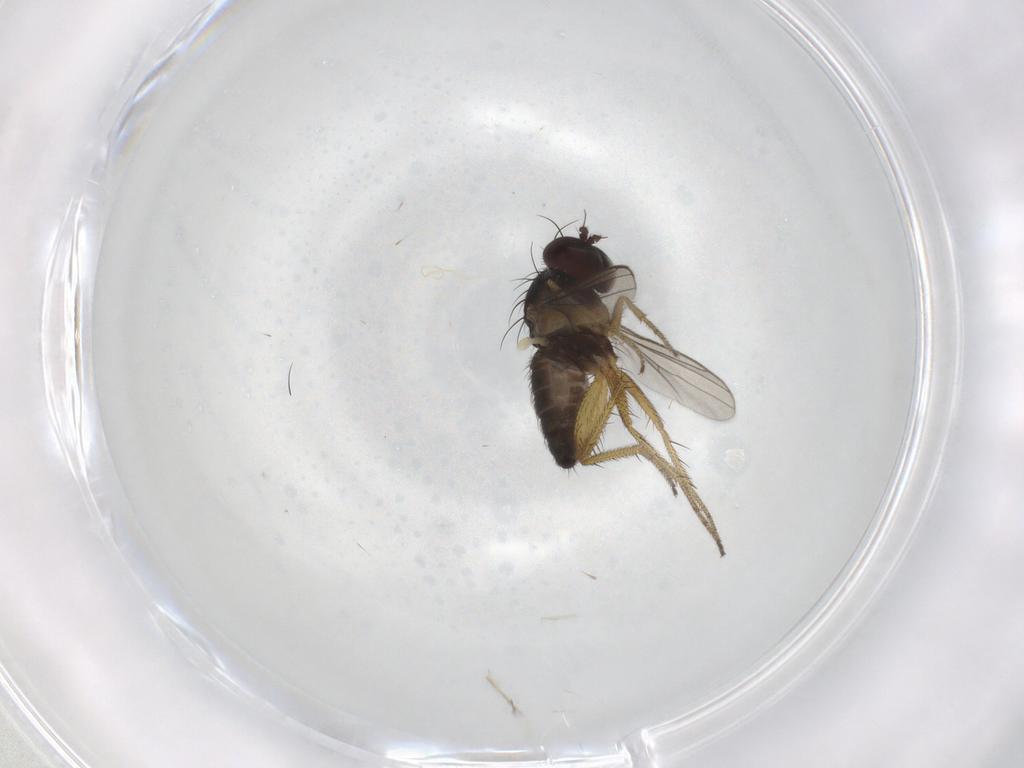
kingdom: Animalia
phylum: Arthropoda
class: Insecta
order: Diptera
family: Dolichopodidae
